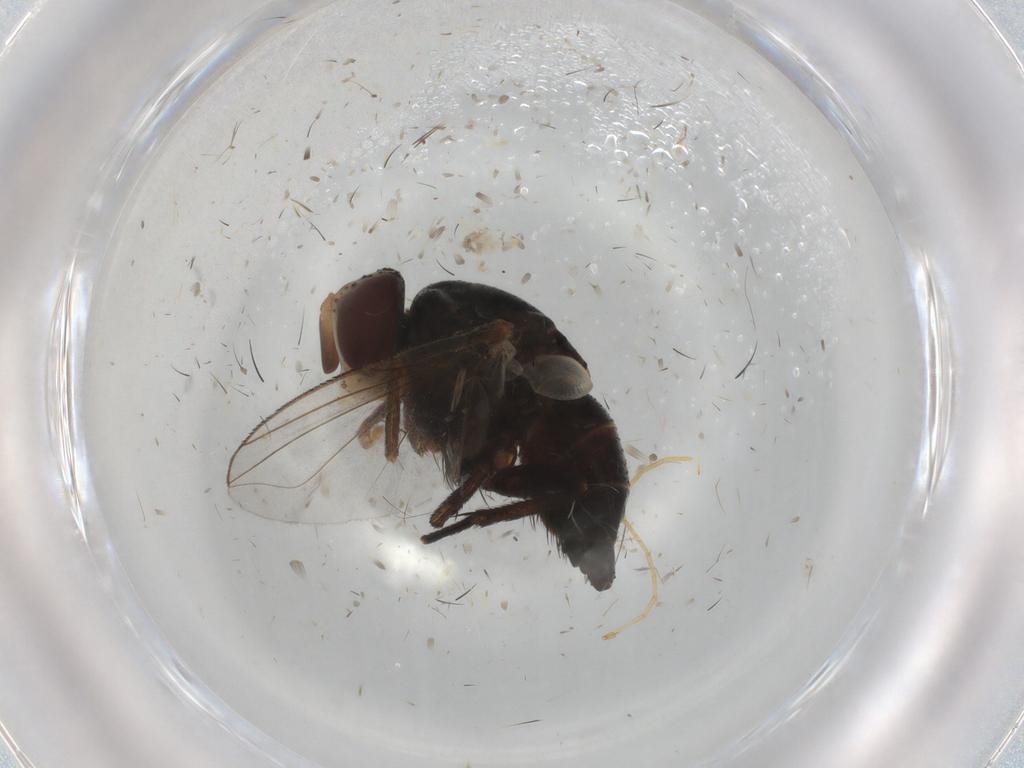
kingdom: Animalia
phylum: Arthropoda
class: Insecta
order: Diptera
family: Glossinidae
